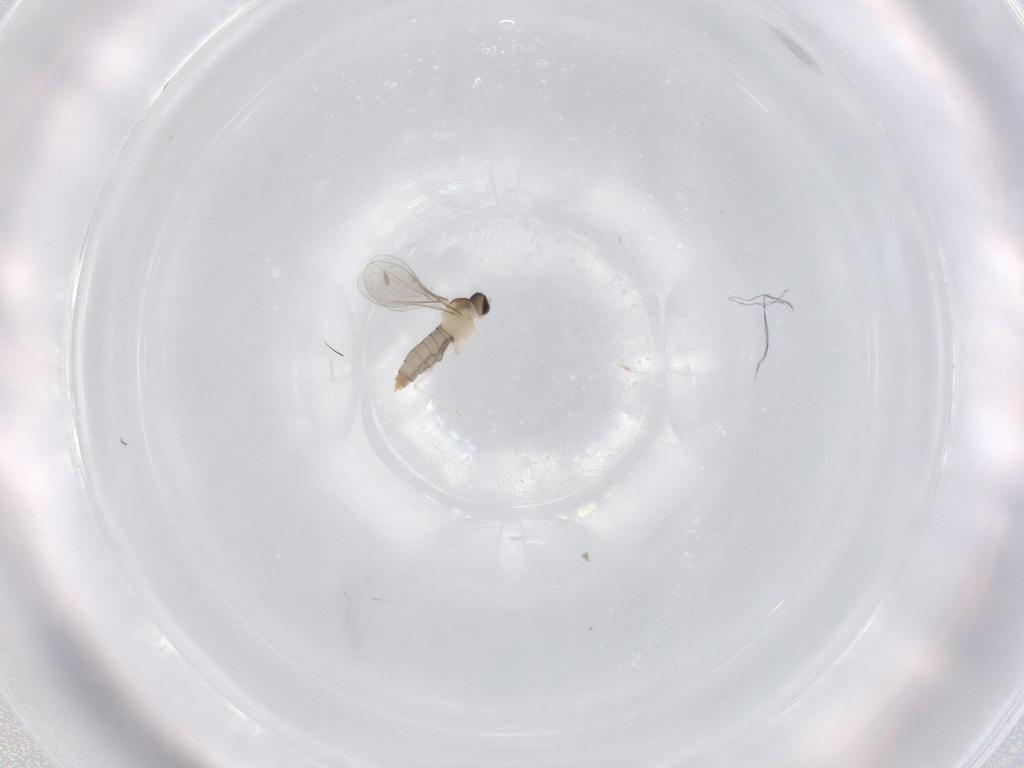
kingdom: Animalia
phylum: Arthropoda
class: Insecta
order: Diptera
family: Cecidomyiidae
